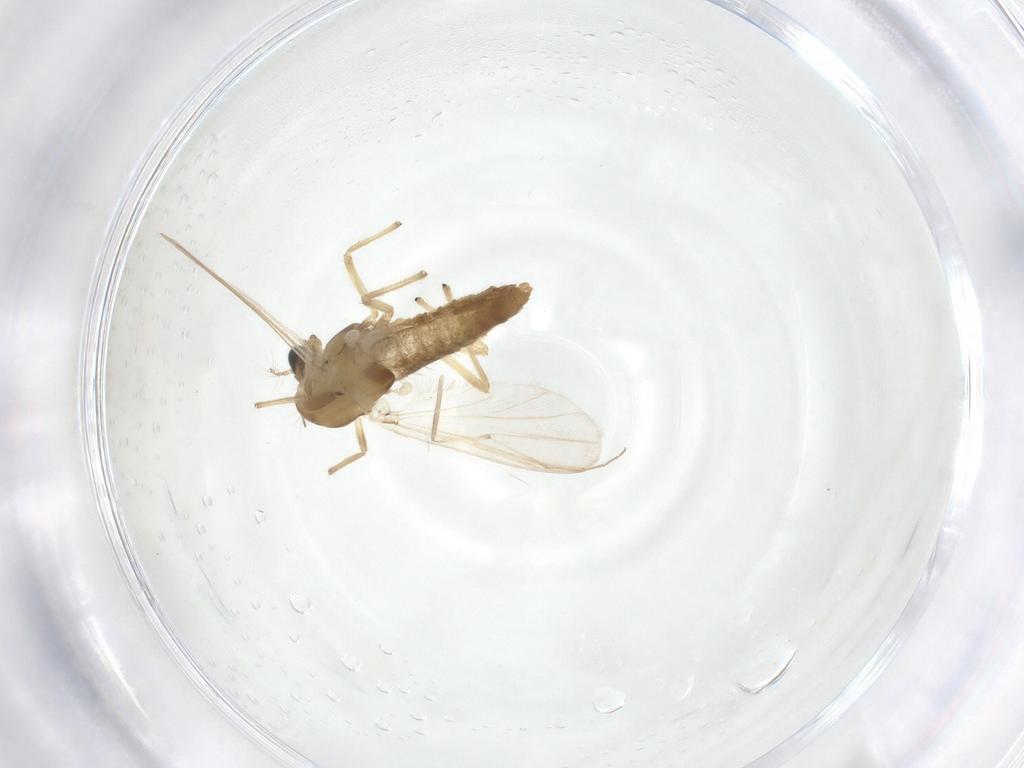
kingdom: Animalia
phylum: Arthropoda
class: Insecta
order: Diptera
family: Chironomidae
